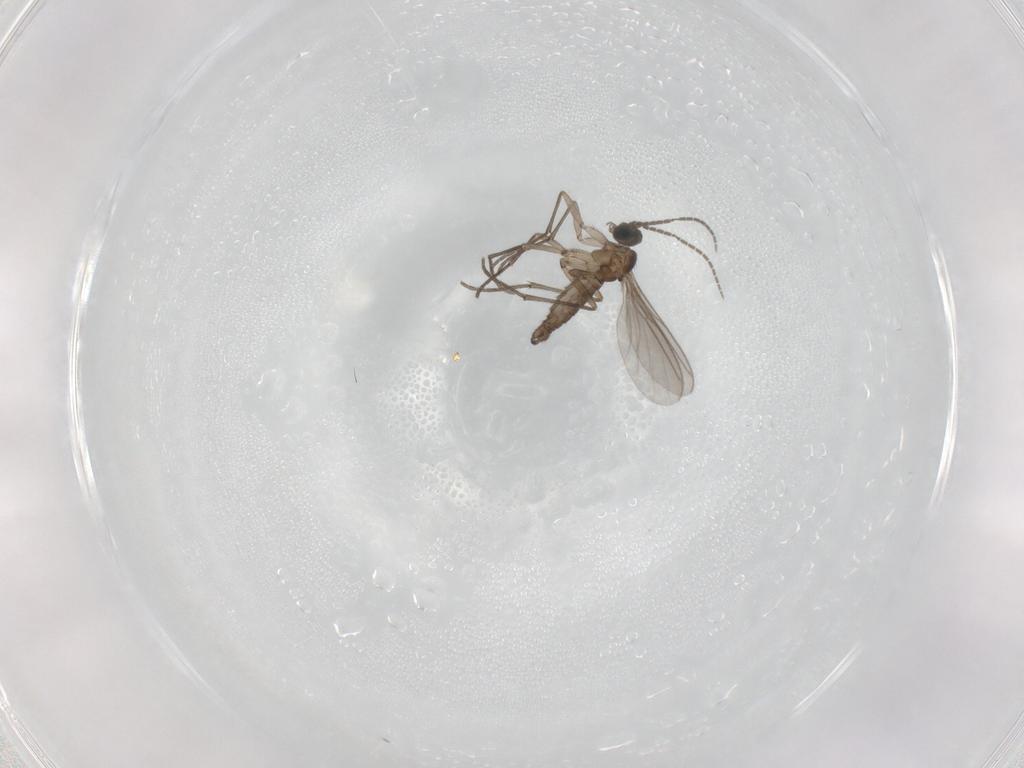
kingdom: Animalia
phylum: Arthropoda
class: Insecta
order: Diptera
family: Sciaridae
